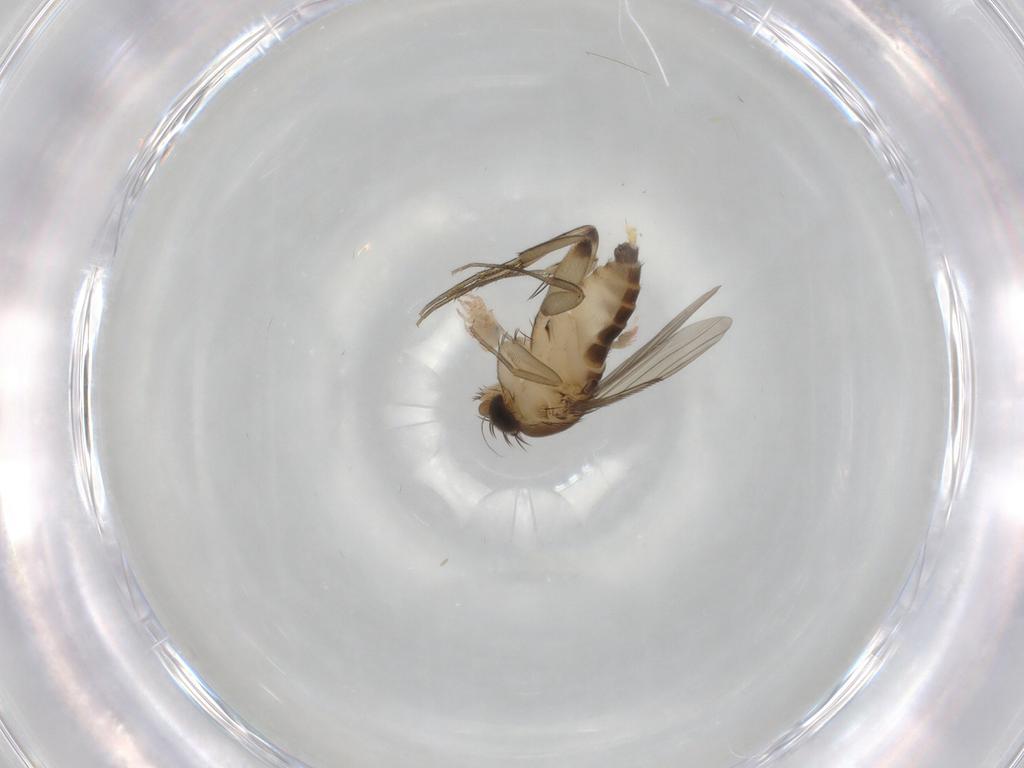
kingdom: Animalia
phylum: Arthropoda
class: Insecta
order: Diptera
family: Phoridae
